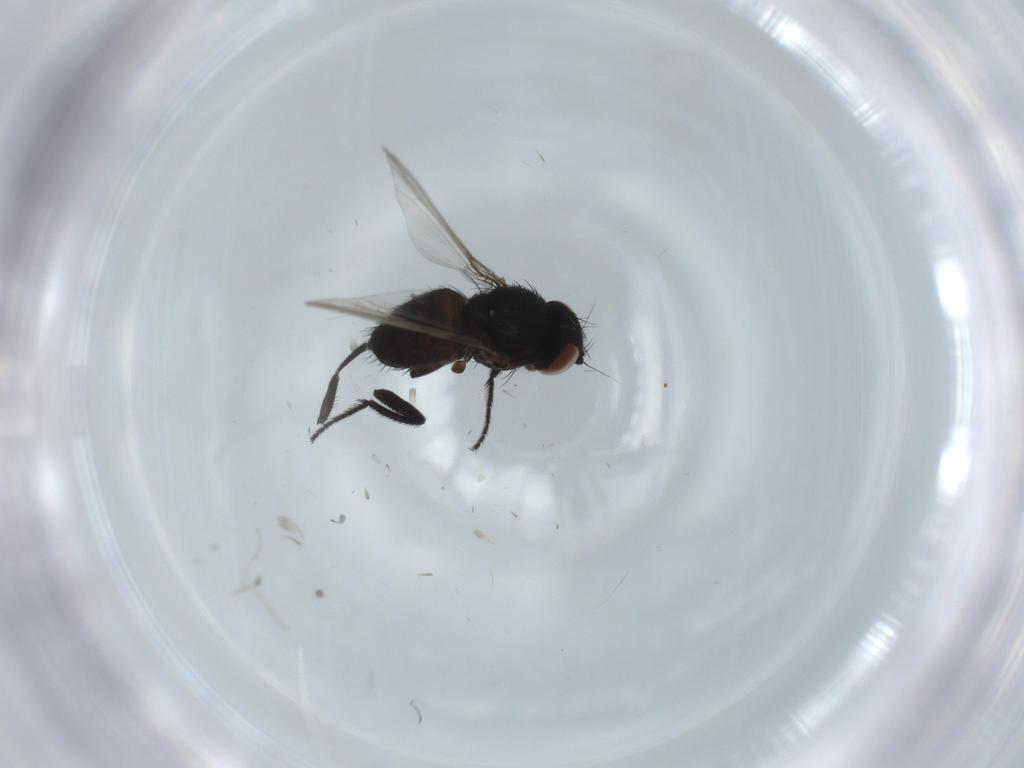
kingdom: Animalia
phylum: Arthropoda
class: Insecta
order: Diptera
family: Milichiidae
